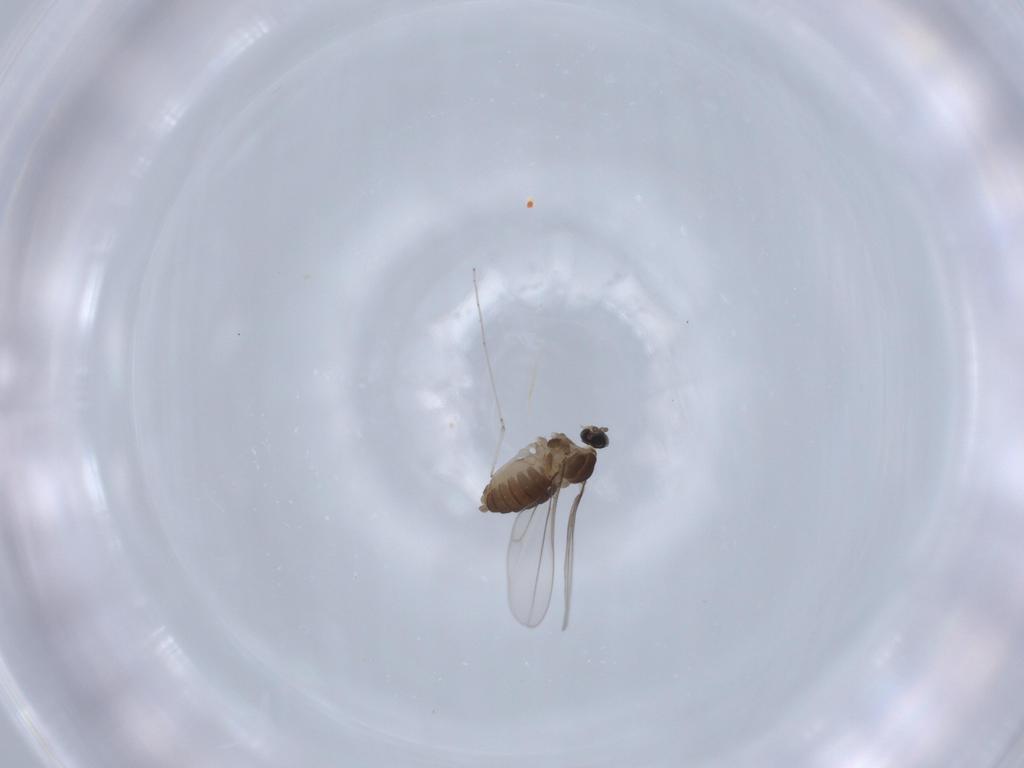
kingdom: Animalia
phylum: Arthropoda
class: Insecta
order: Diptera
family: Cecidomyiidae
